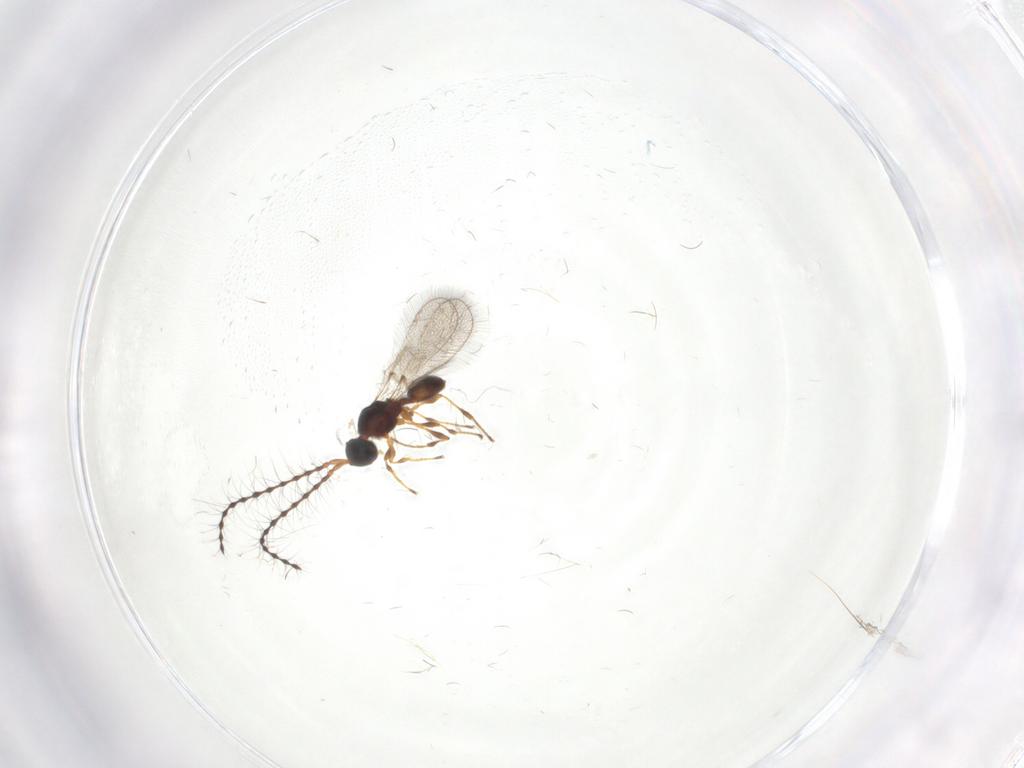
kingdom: Animalia
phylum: Arthropoda
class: Insecta
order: Hymenoptera
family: Diapriidae
